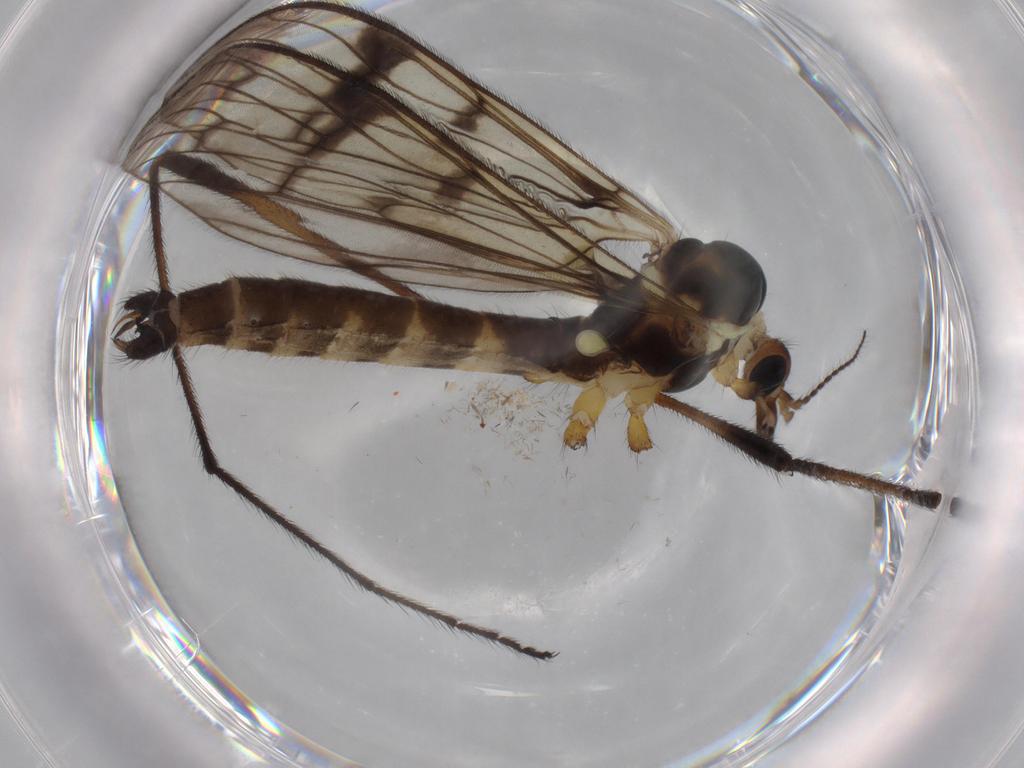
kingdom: Animalia
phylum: Arthropoda
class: Insecta
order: Diptera
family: Limoniidae
